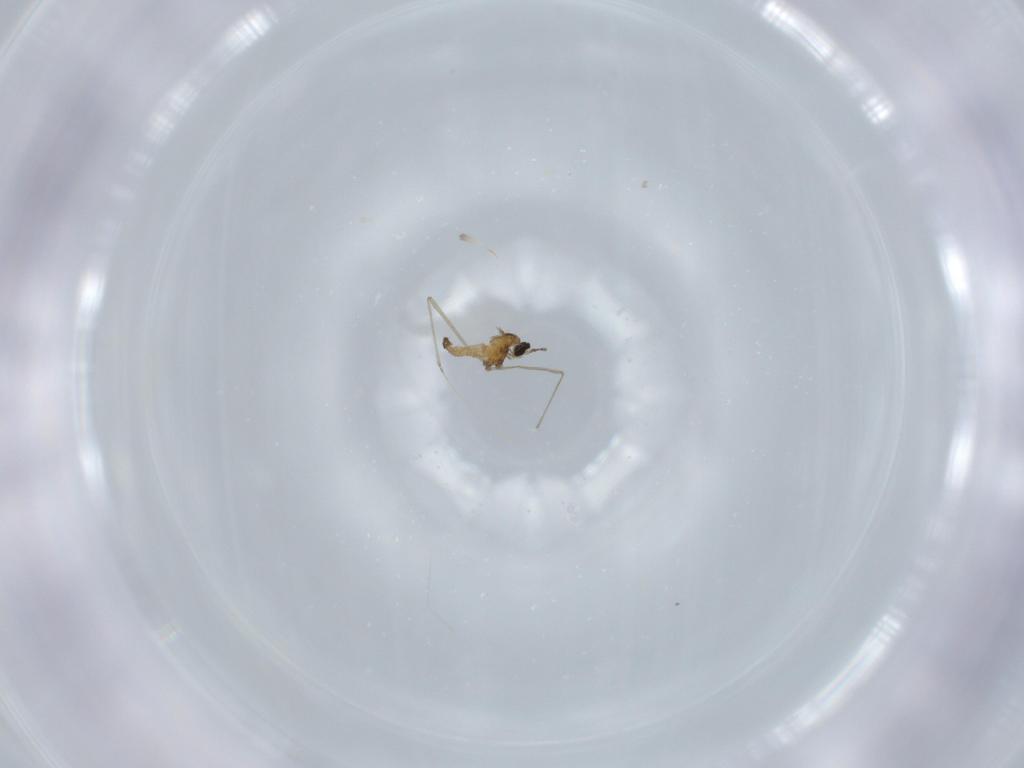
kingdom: Animalia
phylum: Arthropoda
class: Insecta
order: Diptera
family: Cecidomyiidae
